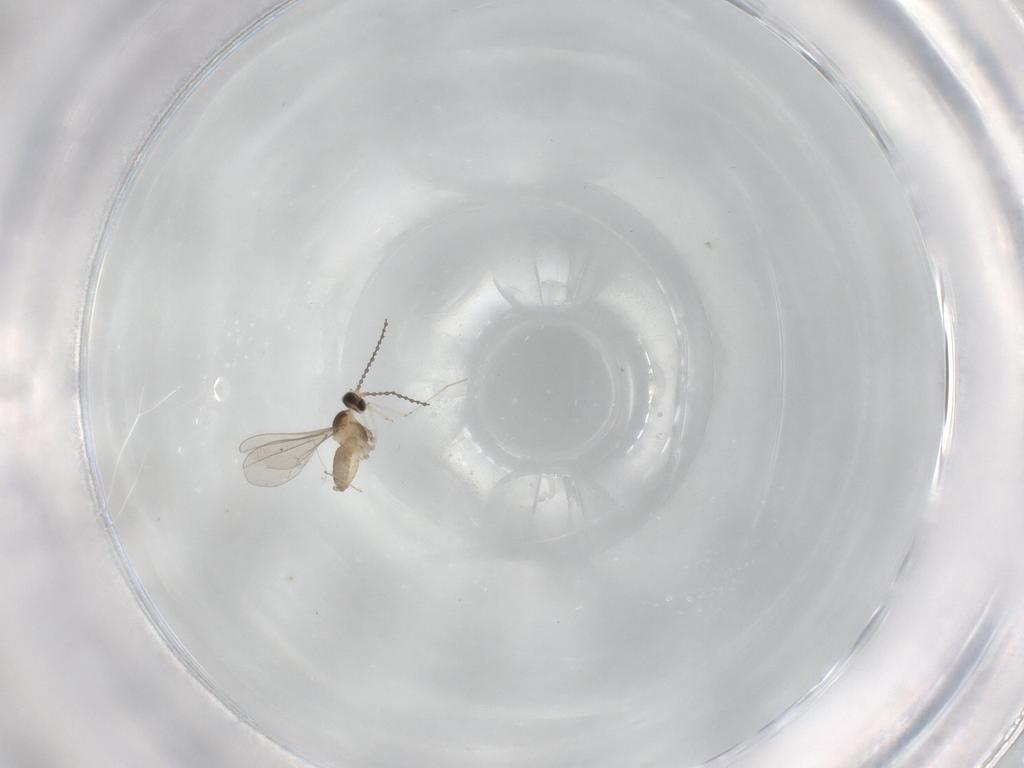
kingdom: Animalia
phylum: Arthropoda
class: Insecta
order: Diptera
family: Cecidomyiidae
